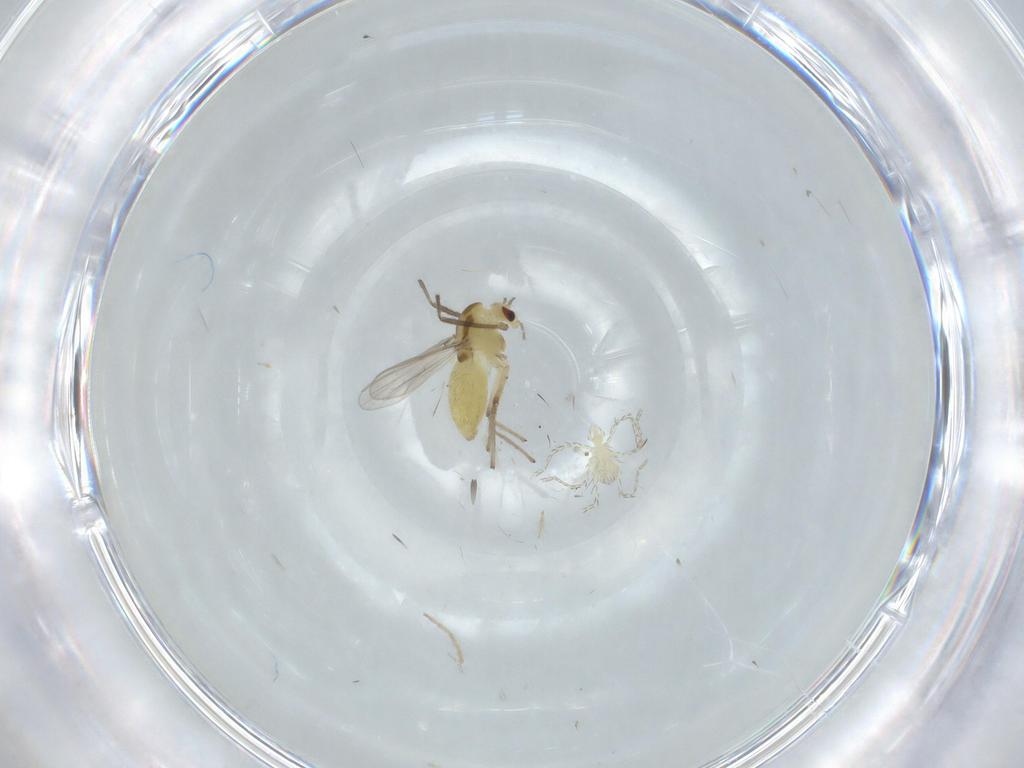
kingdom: Animalia
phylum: Arthropoda
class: Insecta
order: Diptera
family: Chironomidae
